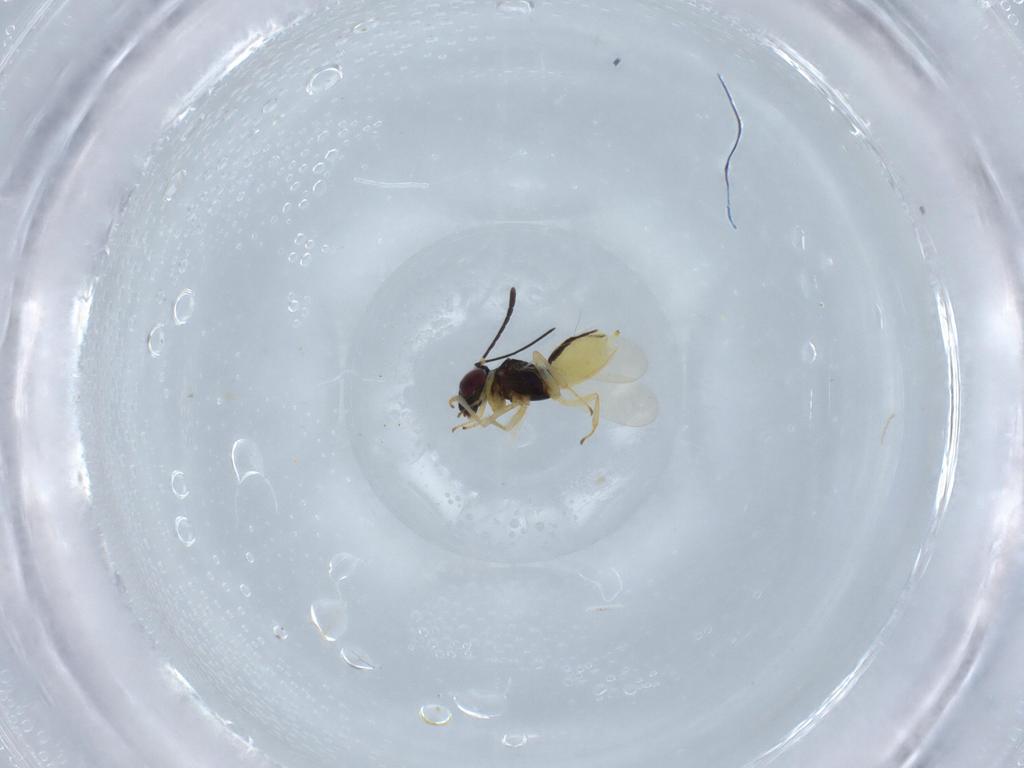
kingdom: Animalia
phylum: Arthropoda
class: Insecta
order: Hymenoptera
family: Encyrtidae
